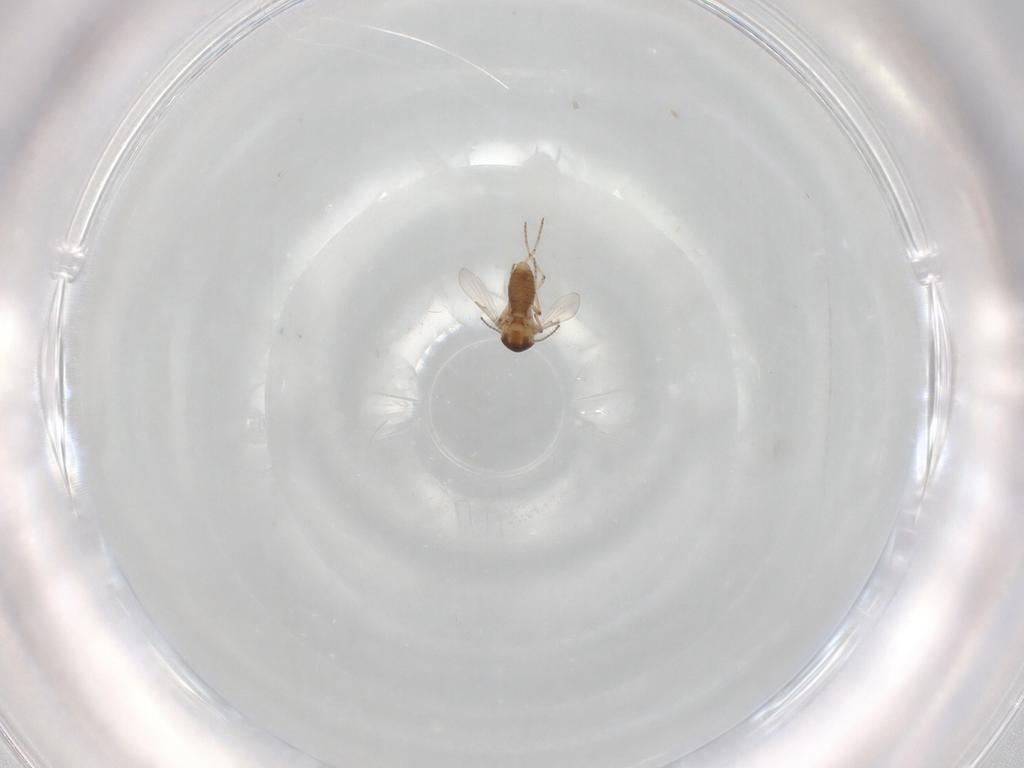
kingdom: Animalia
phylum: Arthropoda
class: Insecta
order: Diptera
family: Ceratopogonidae
